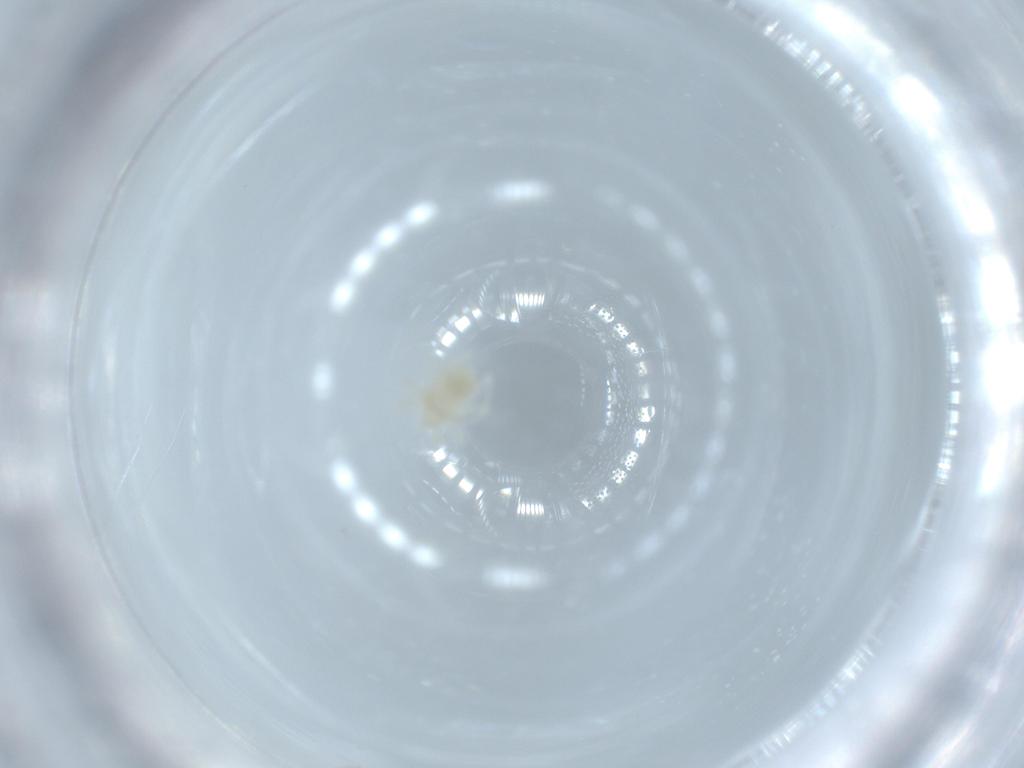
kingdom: Animalia
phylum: Arthropoda
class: Arachnida
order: Trombidiformes
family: Anystidae
